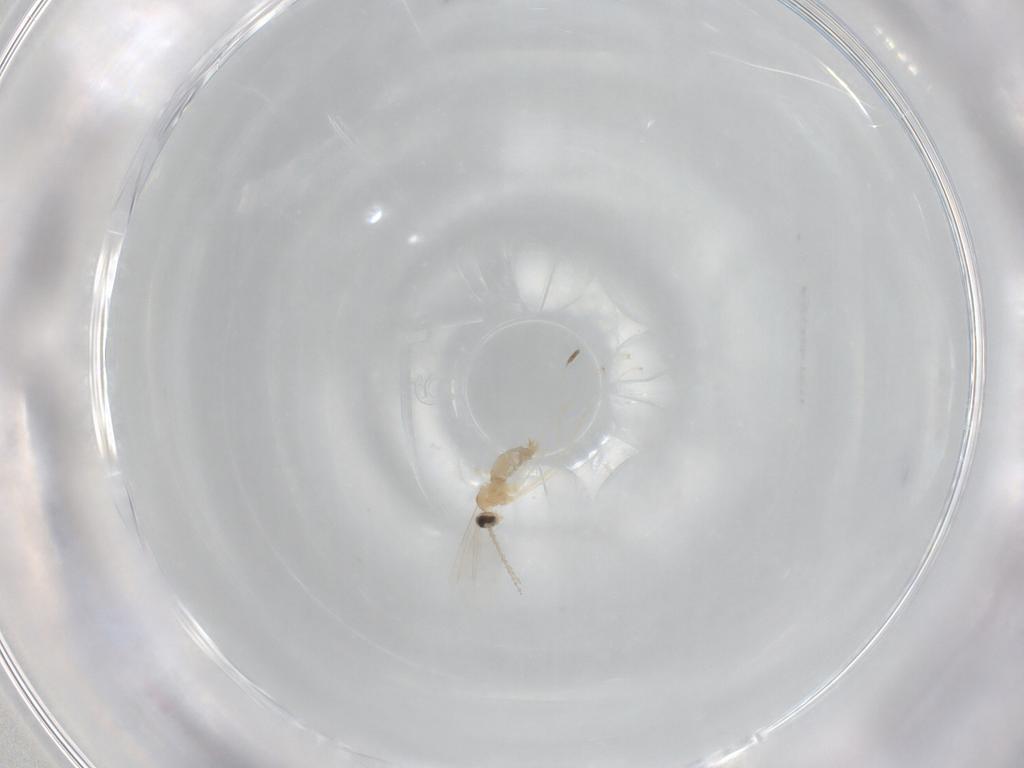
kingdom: Animalia
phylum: Arthropoda
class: Insecta
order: Diptera
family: Cecidomyiidae
